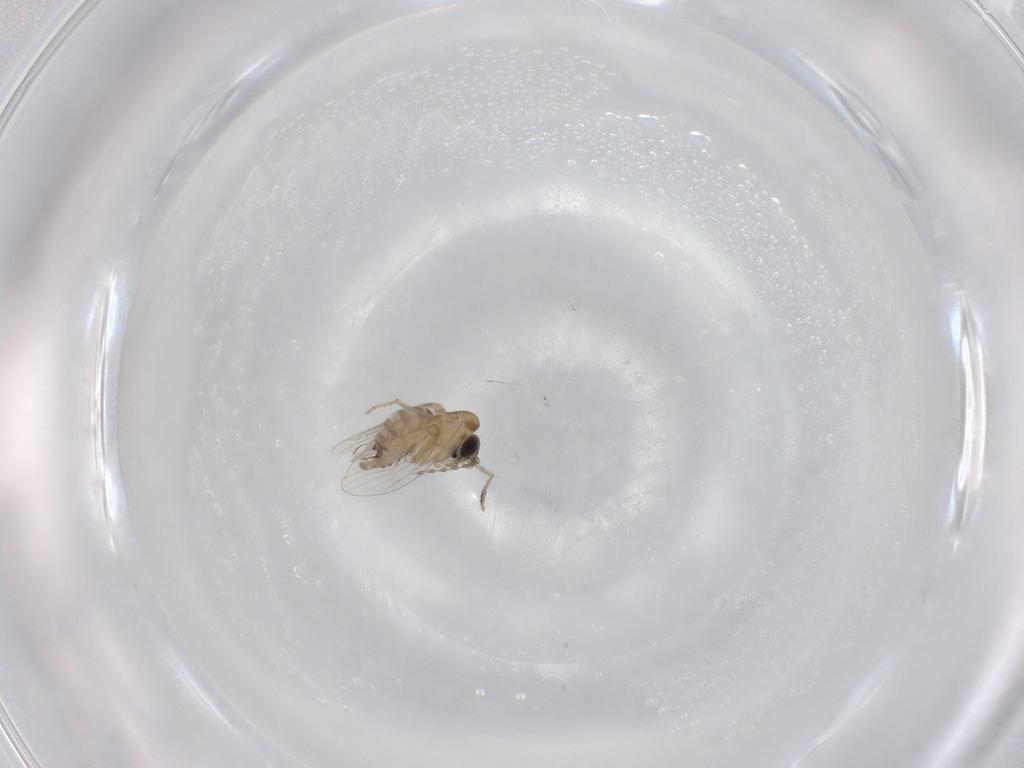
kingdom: Animalia
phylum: Arthropoda
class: Insecta
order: Diptera
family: Psychodidae
